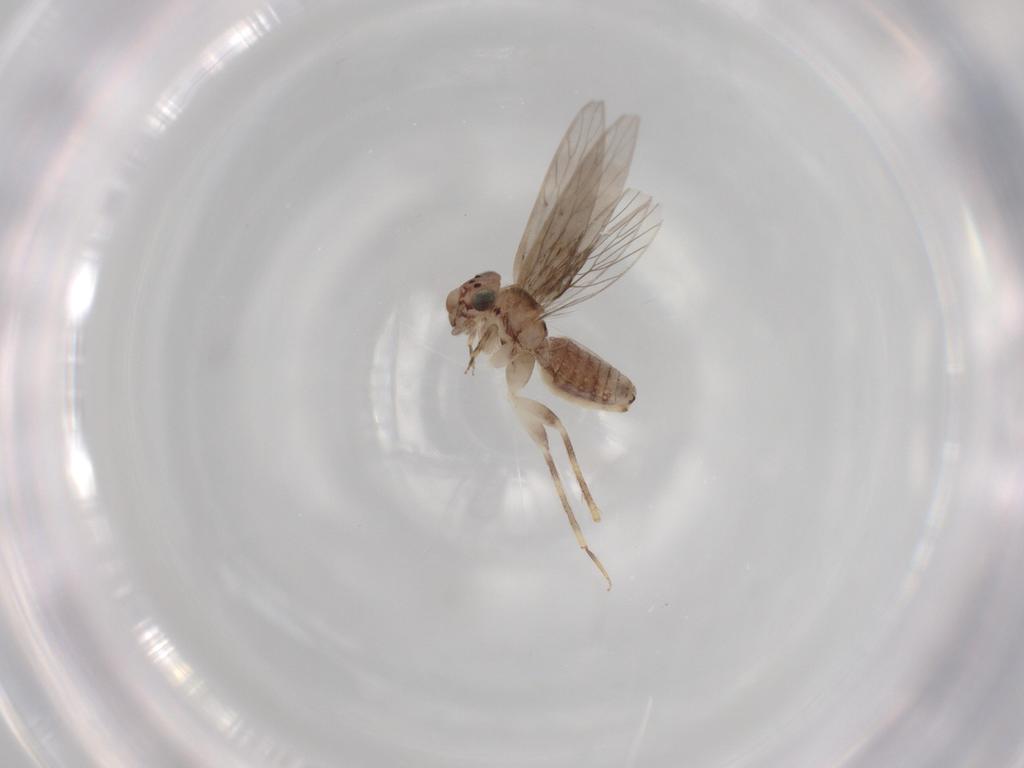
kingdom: Animalia
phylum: Arthropoda
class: Insecta
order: Psocodea
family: Lepidopsocidae
